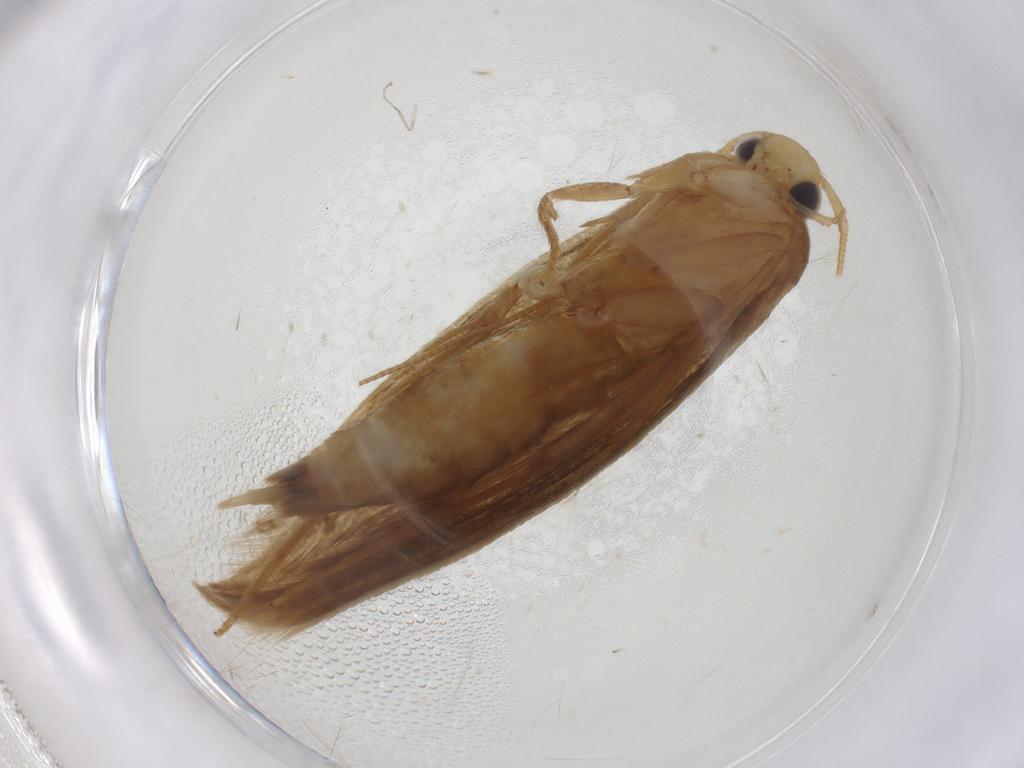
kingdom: Animalia
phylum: Arthropoda
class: Insecta
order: Lepidoptera
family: Tineidae
